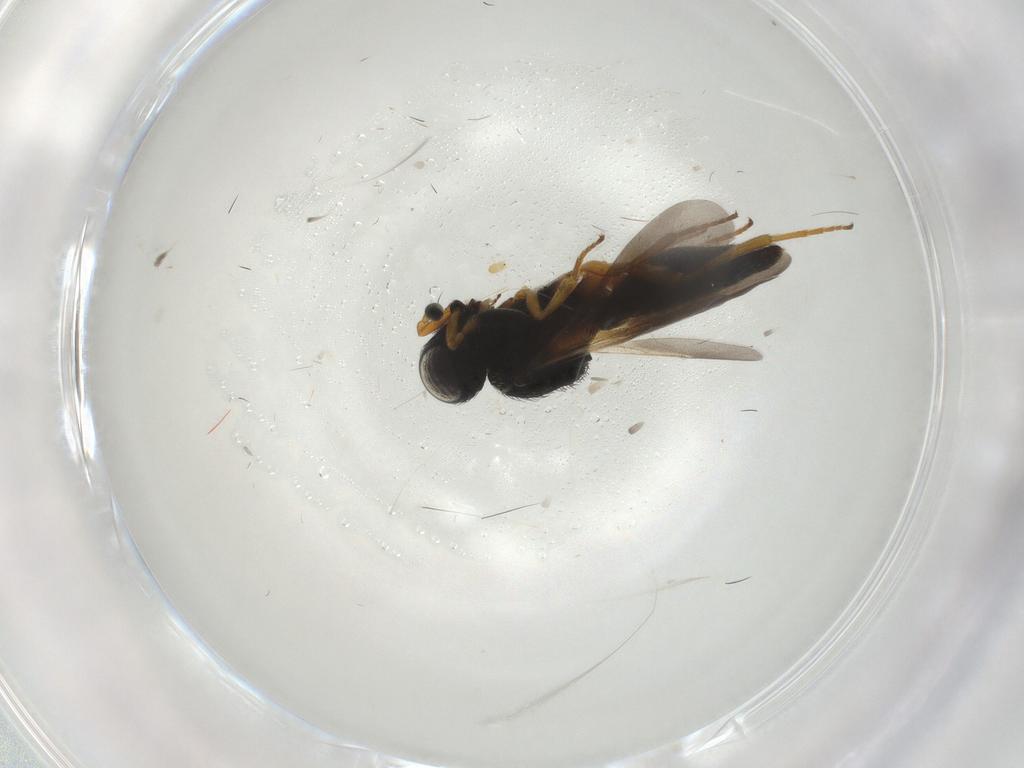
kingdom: Animalia
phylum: Arthropoda
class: Insecta
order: Hymenoptera
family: Scelionidae
